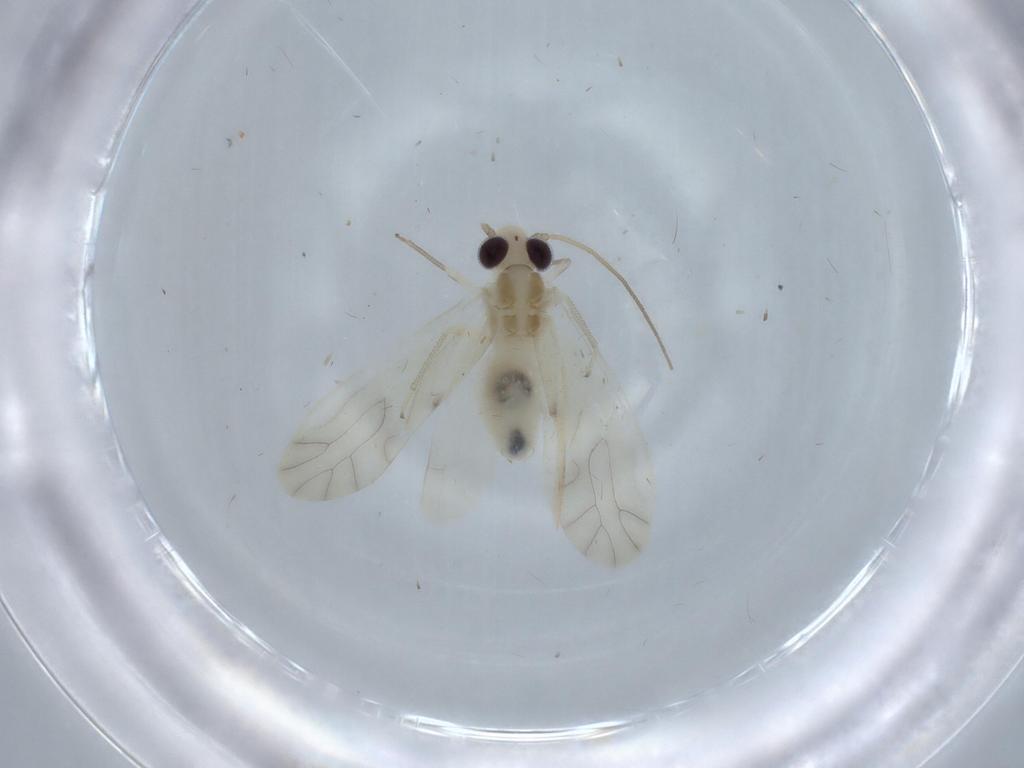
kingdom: Animalia
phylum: Arthropoda
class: Insecta
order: Psocodea
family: Caeciliusidae
